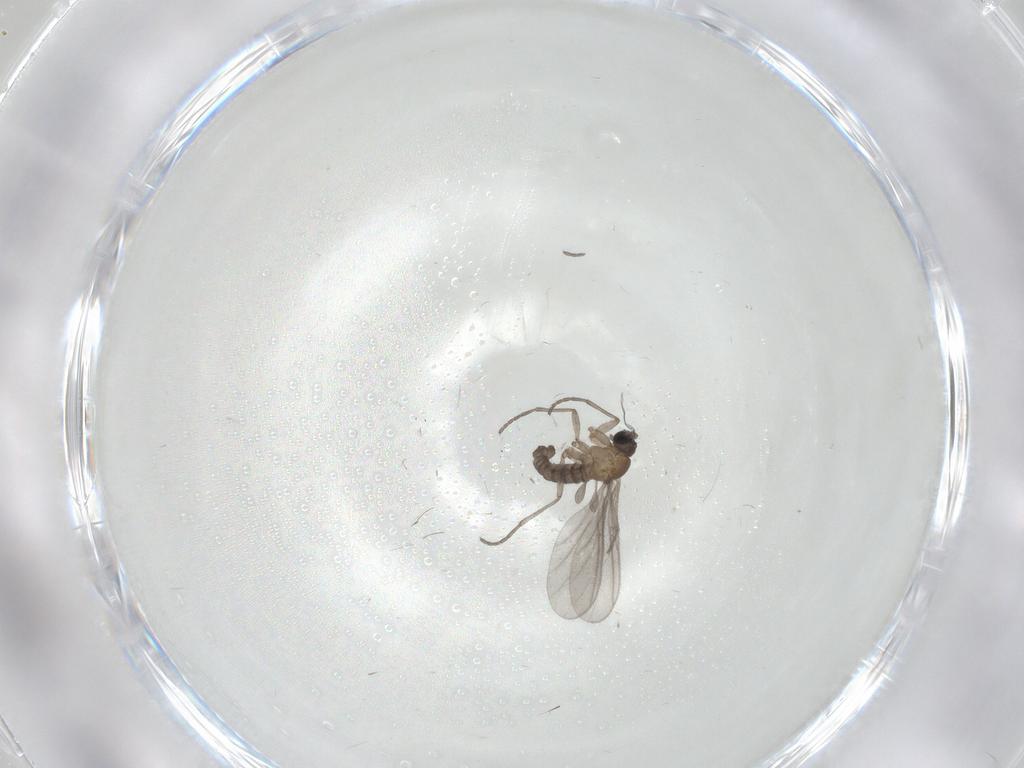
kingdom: Animalia
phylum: Arthropoda
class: Insecta
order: Diptera
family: Sciaridae
